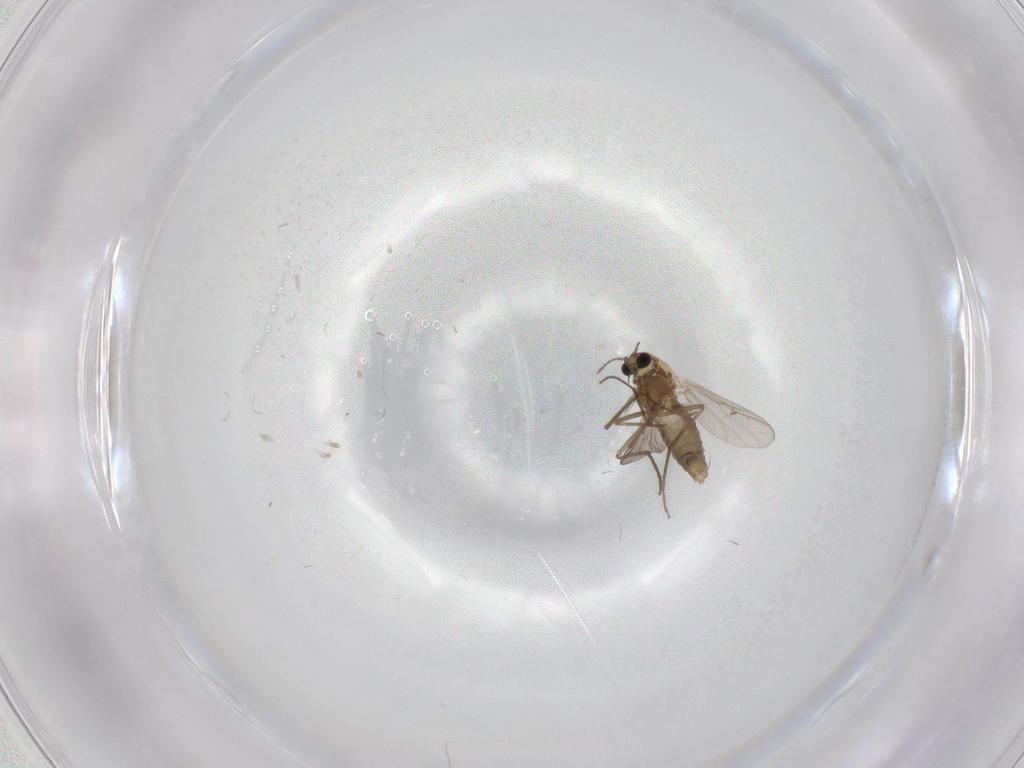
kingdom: Animalia
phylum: Arthropoda
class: Insecta
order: Diptera
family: Chironomidae
